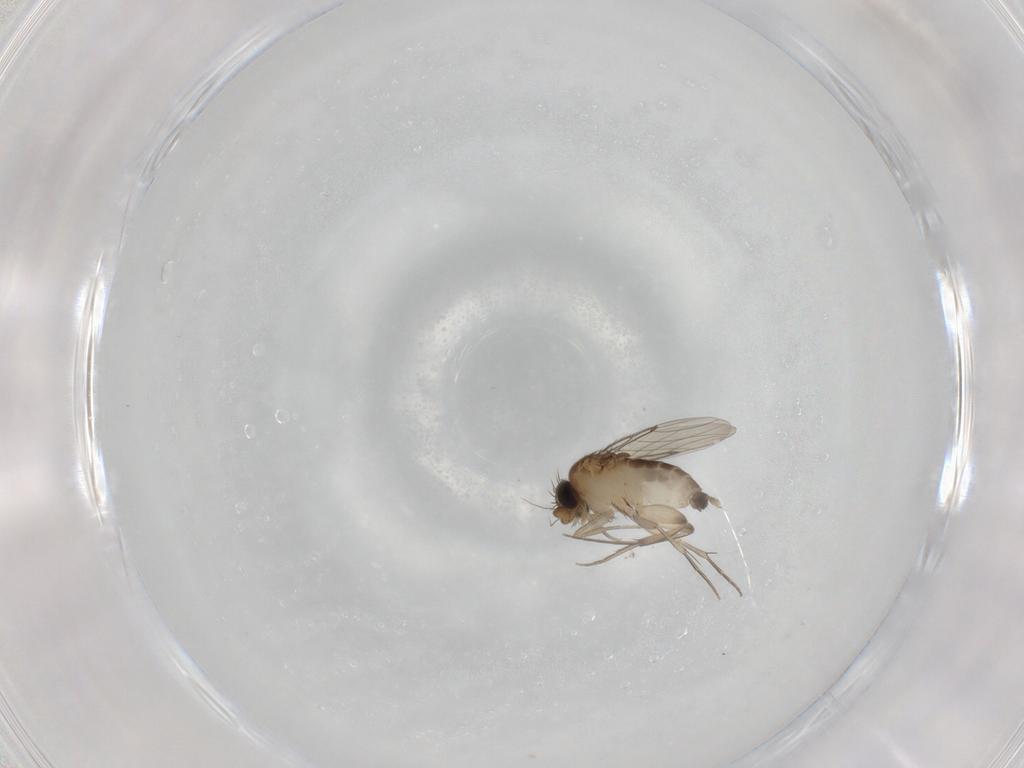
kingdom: Animalia
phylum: Arthropoda
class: Insecta
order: Diptera
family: Phoridae
